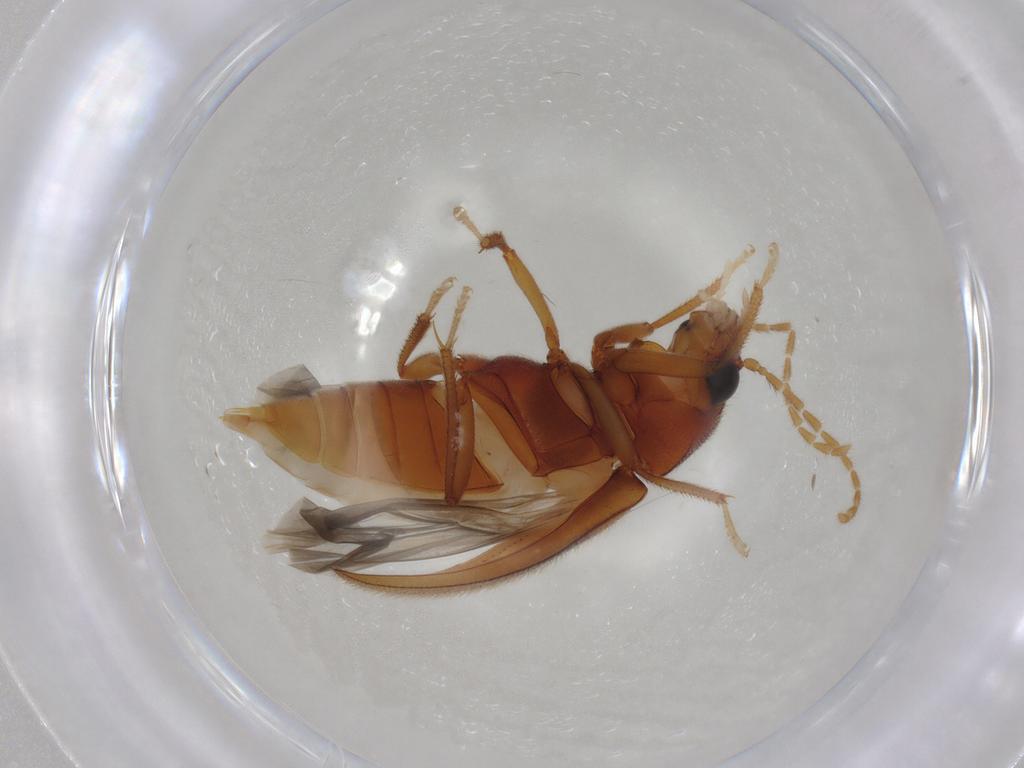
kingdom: Animalia
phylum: Arthropoda
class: Insecta
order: Coleoptera
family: Ptilodactylidae
